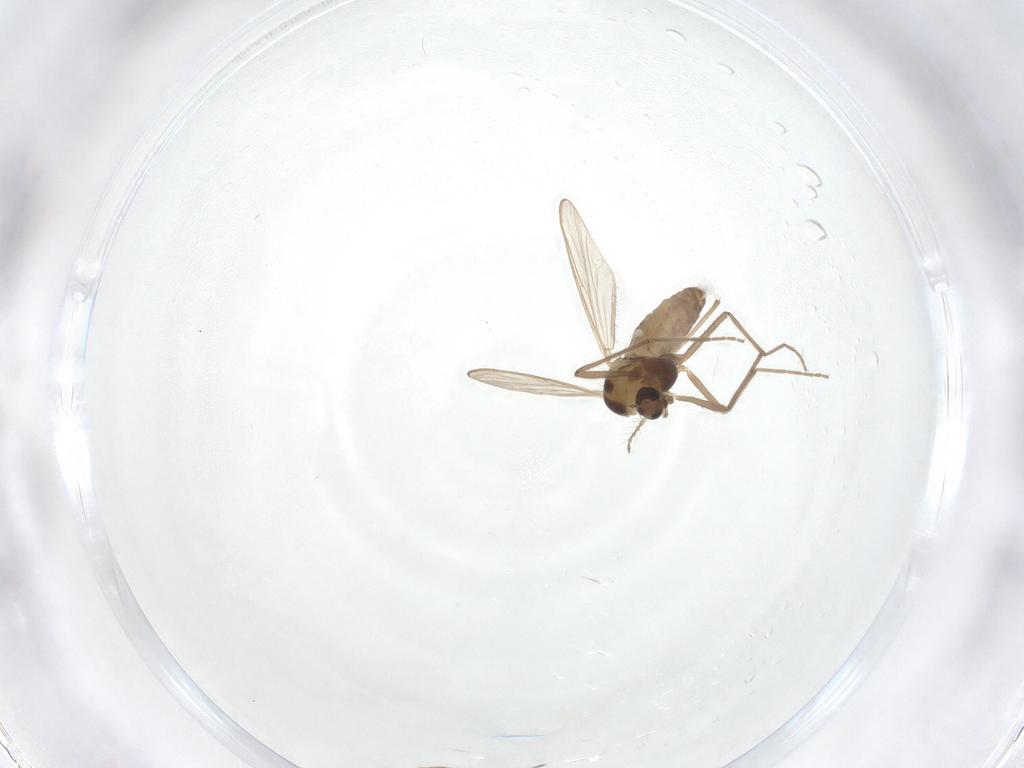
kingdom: Animalia
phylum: Arthropoda
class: Insecta
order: Diptera
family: Chironomidae
